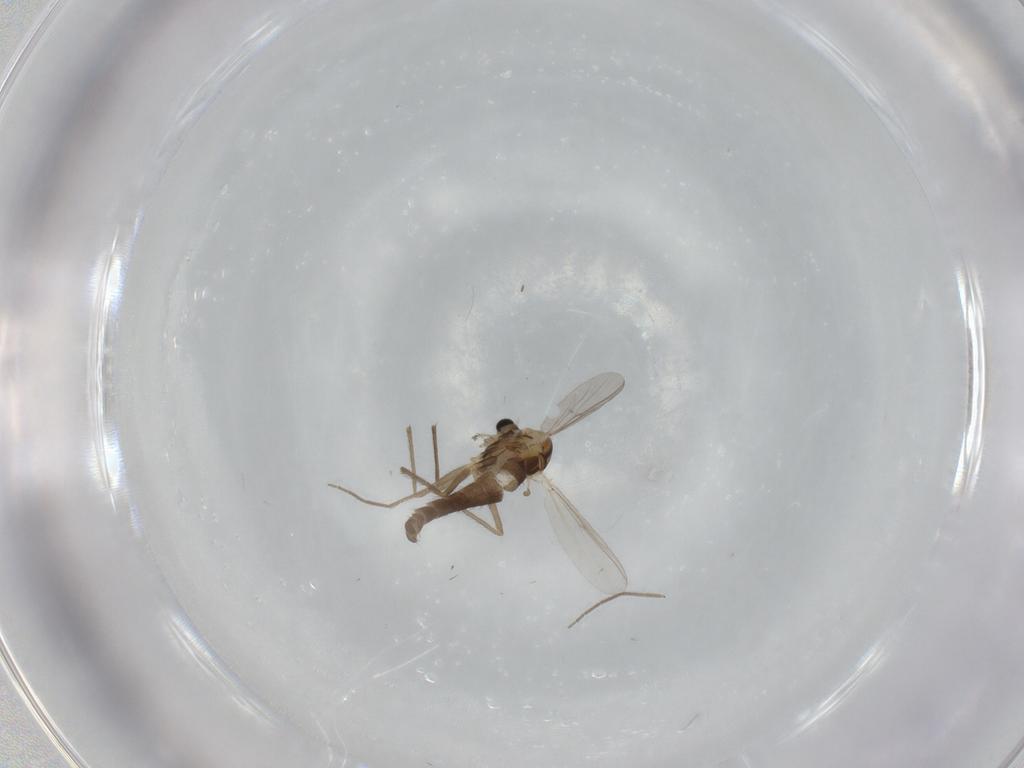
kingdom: Animalia
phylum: Arthropoda
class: Insecta
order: Diptera
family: Chironomidae
